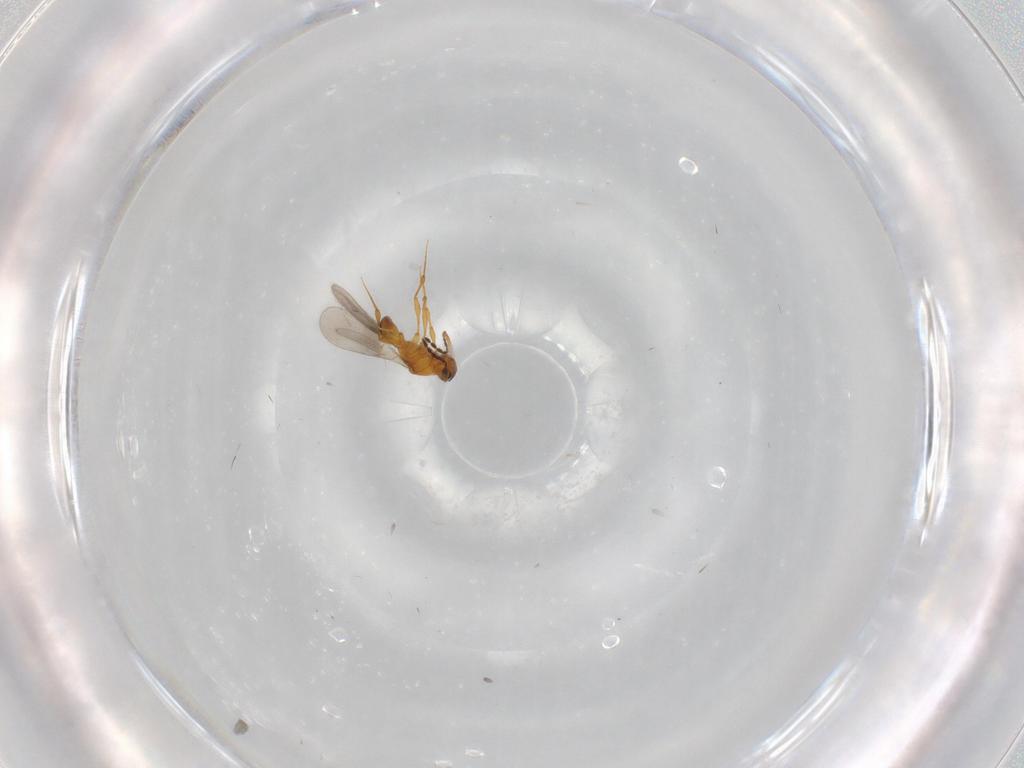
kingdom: Animalia
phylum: Arthropoda
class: Insecta
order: Hymenoptera
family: Platygastridae
